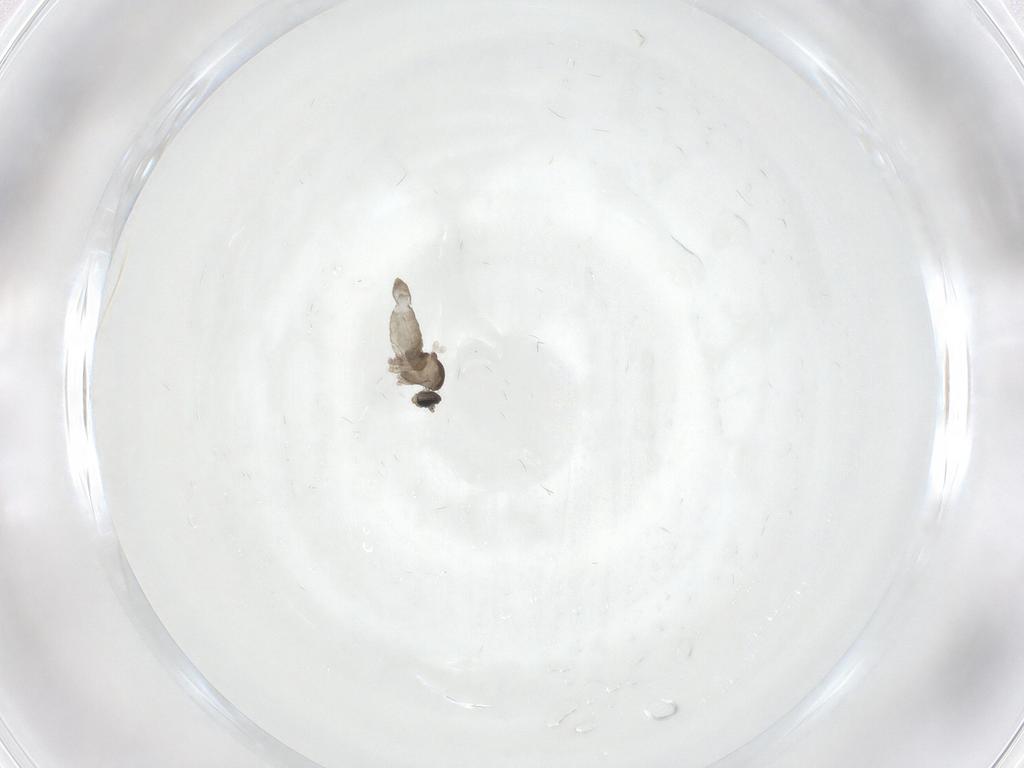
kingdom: Animalia
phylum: Arthropoda
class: Insecta
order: Diptera
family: Cecidomyiidae
